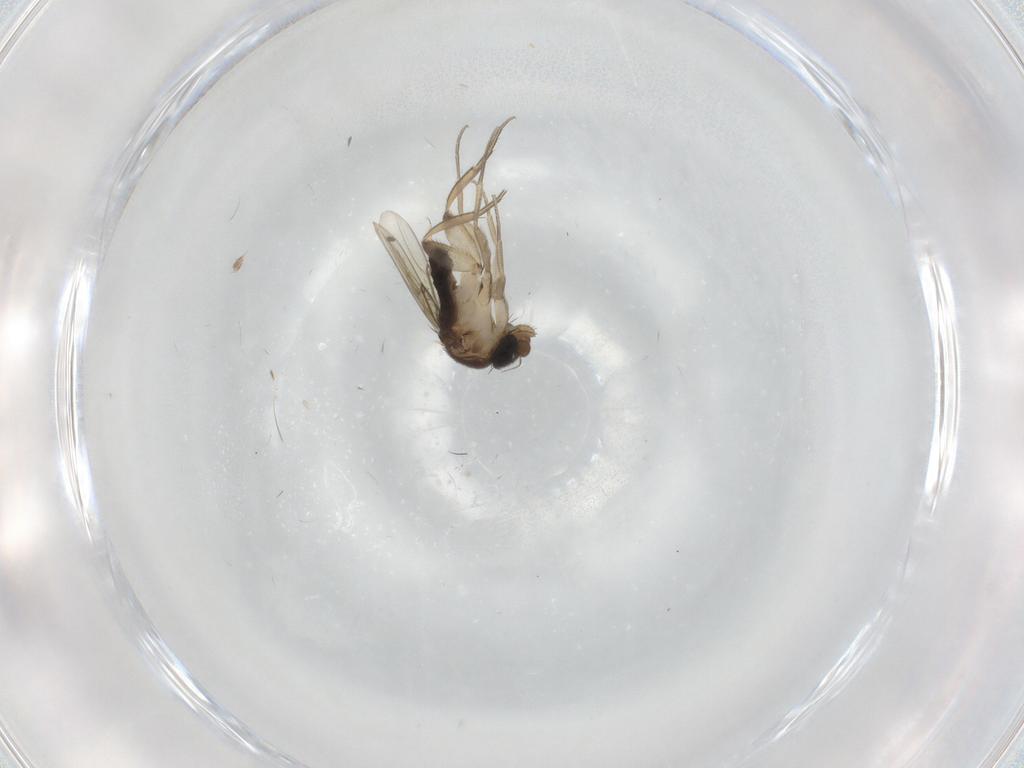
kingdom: Animalia
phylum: Arthropoda
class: Insecta
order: Diptera
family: Phoridae
